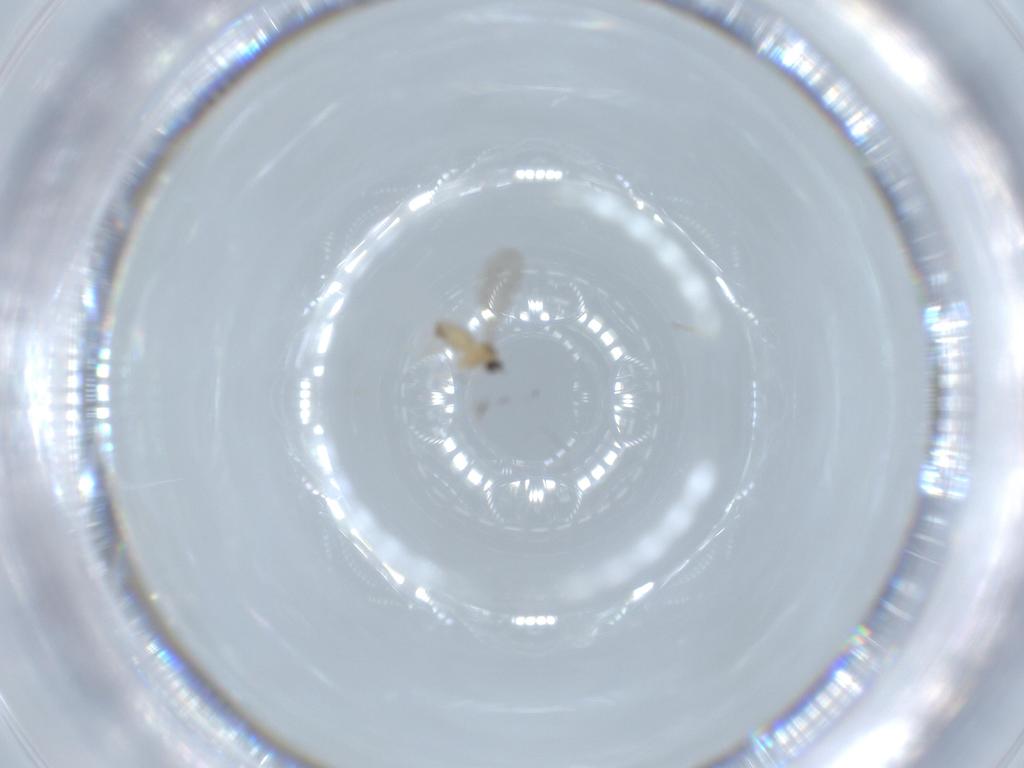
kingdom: Animalia
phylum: Arthropoda
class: Insecta
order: Diptera
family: Cecidomyiidae
